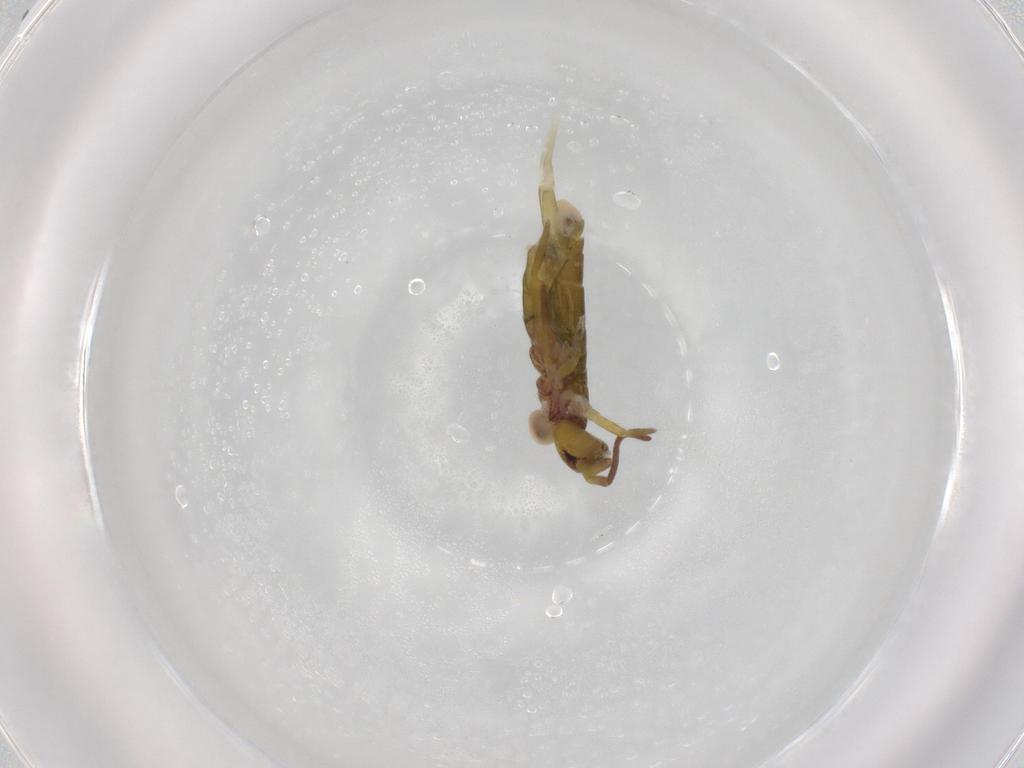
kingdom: Animalia
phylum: Arthropoda
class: Collembola
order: Entomobryomorpha
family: Tomoceridae
